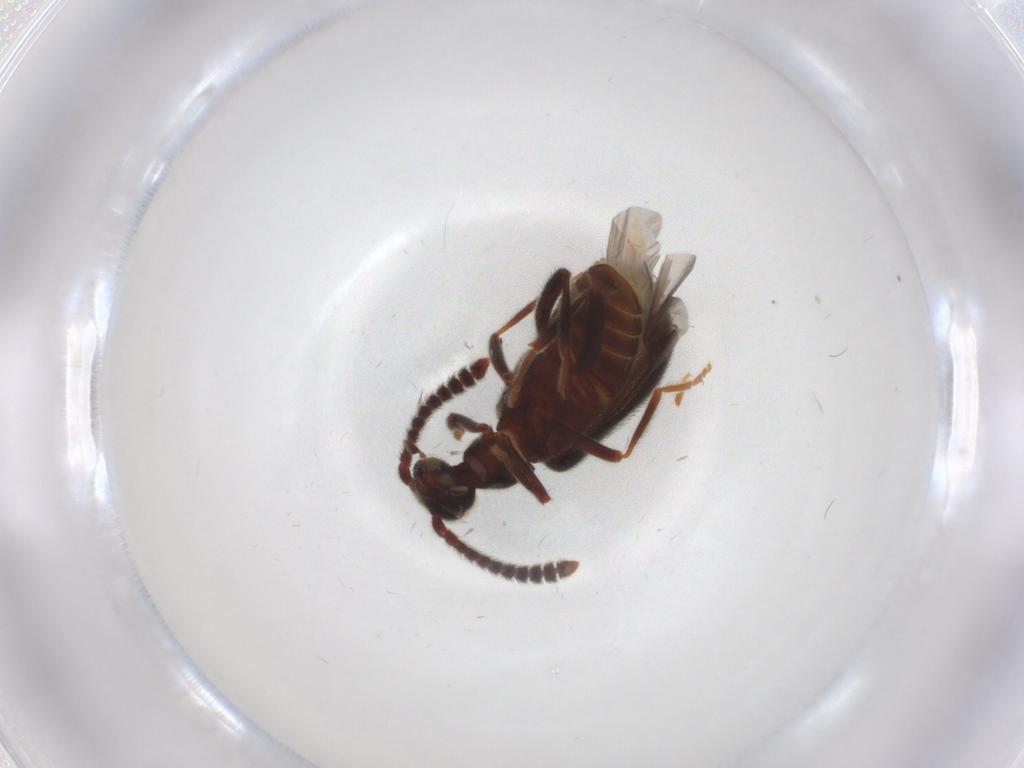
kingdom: Animalia
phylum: Arthropoda
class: Insecta
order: Coleoptera
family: Aderidae
